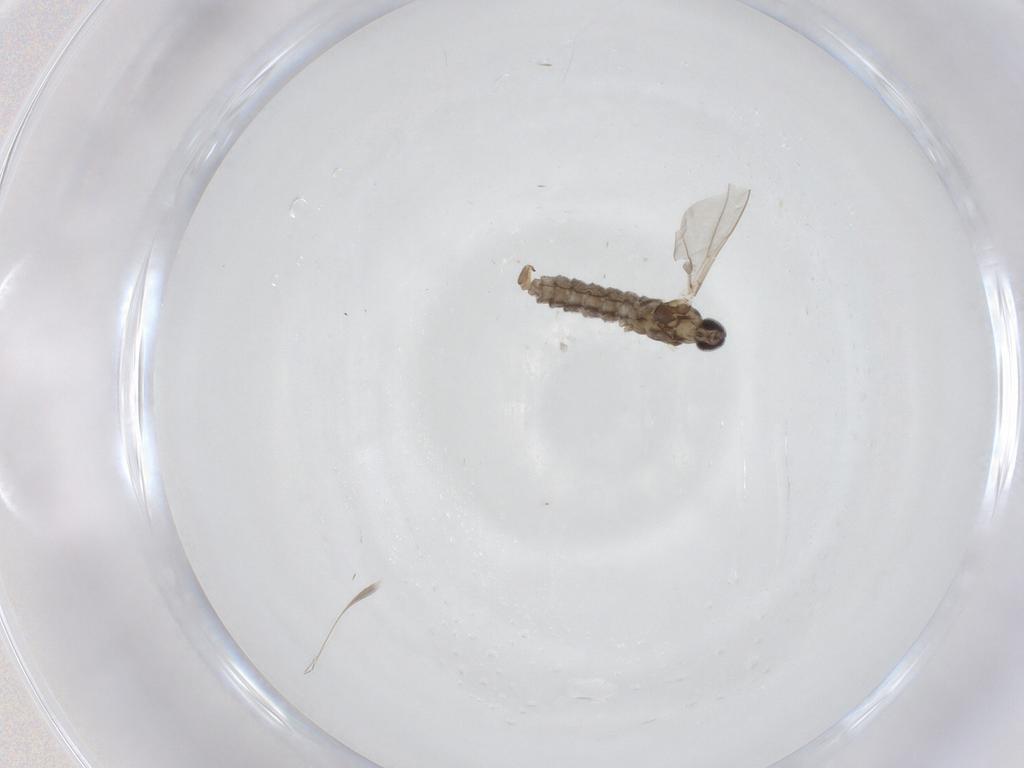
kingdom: Animalia
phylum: Arthropoda
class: Insecta
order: Diptera
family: Cecidomyiidae
